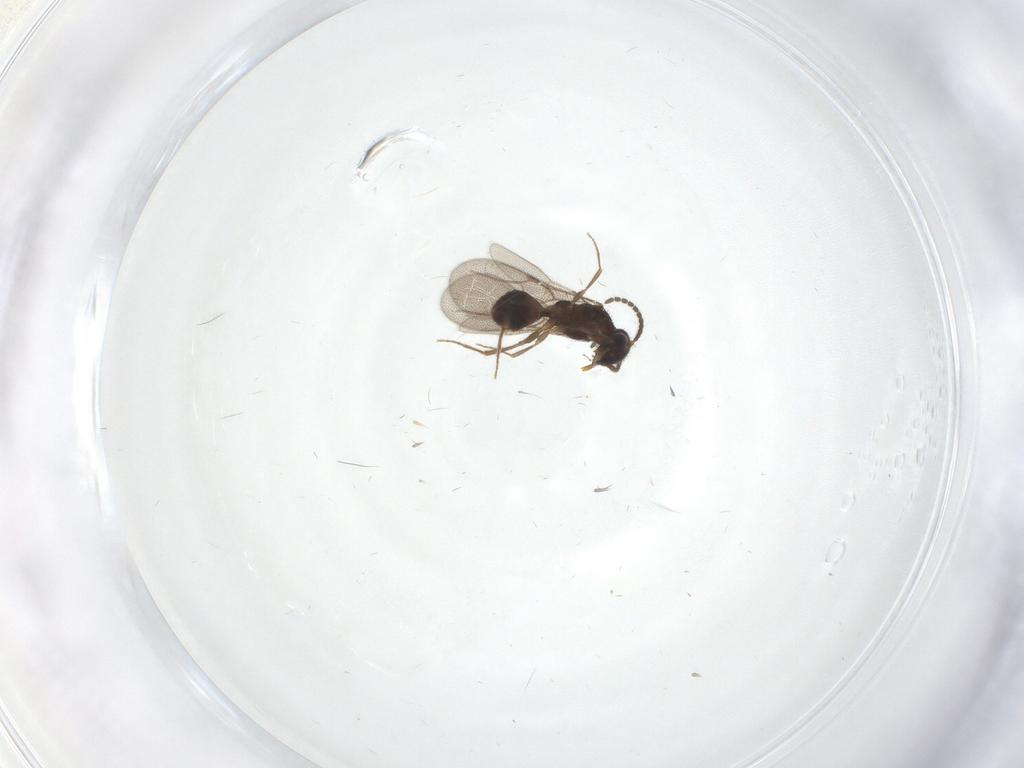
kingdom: Animalia
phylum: Arthropoda
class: Insecta
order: Hymenoptera
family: Bethylidae
